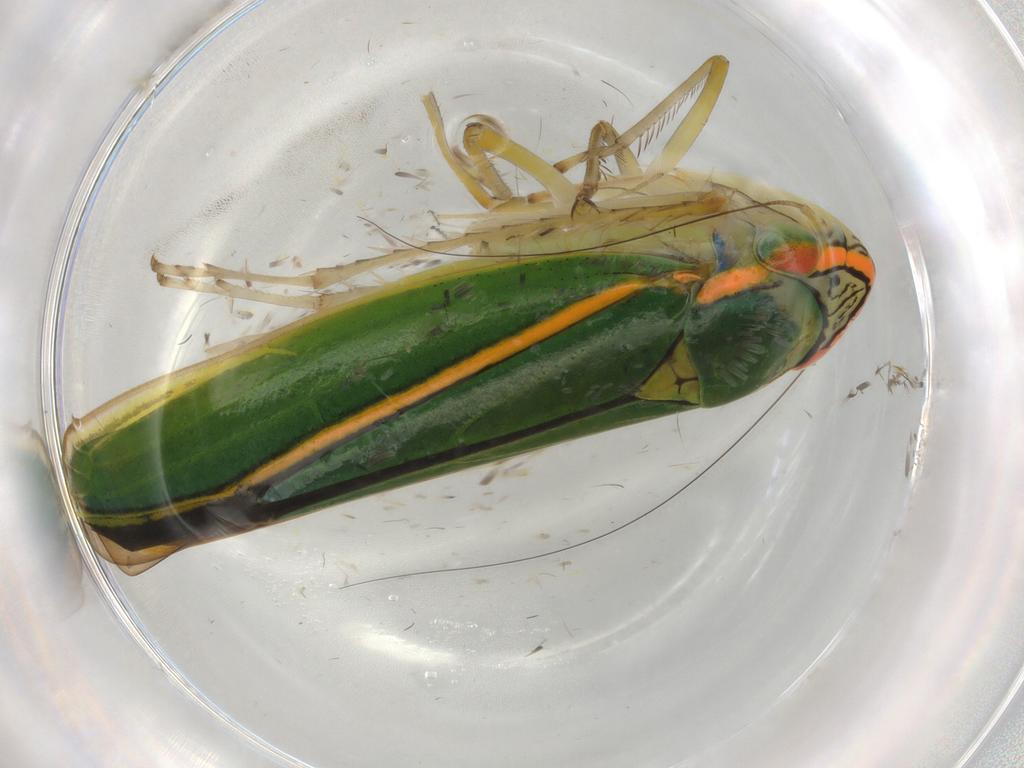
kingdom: Animalia
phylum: Arthropoda
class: Insecta
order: Hemiptera
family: Cicadellidae
